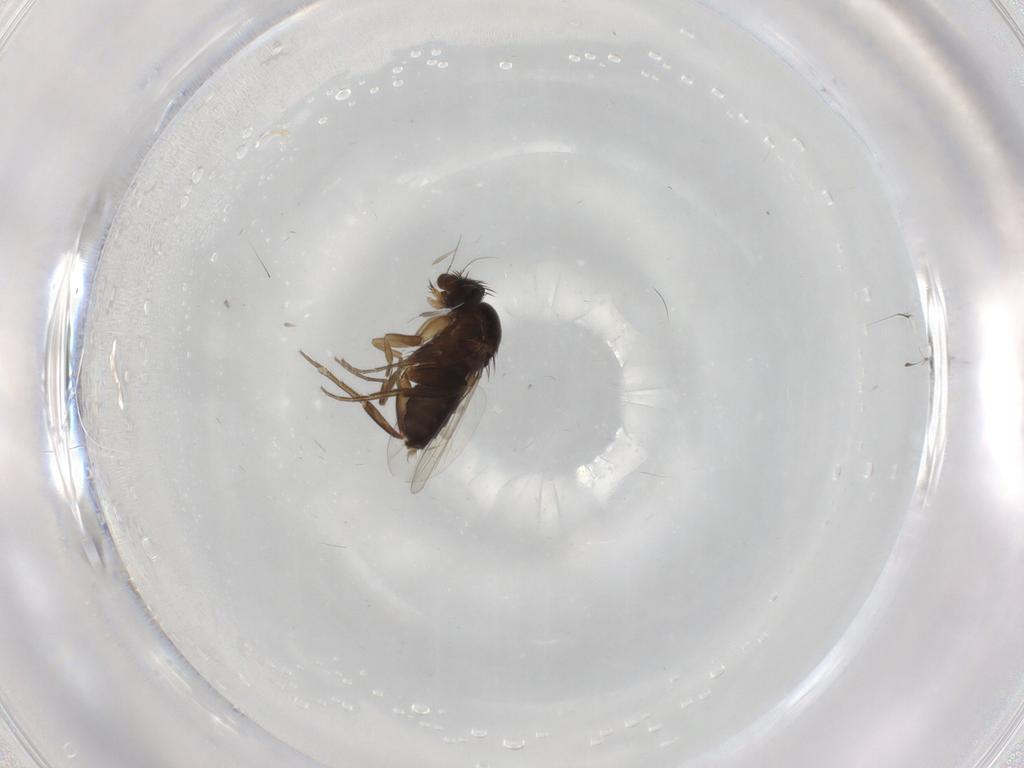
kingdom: Animalia
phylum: Arthropoda
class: Insecta
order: Diptera
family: Phoridae
